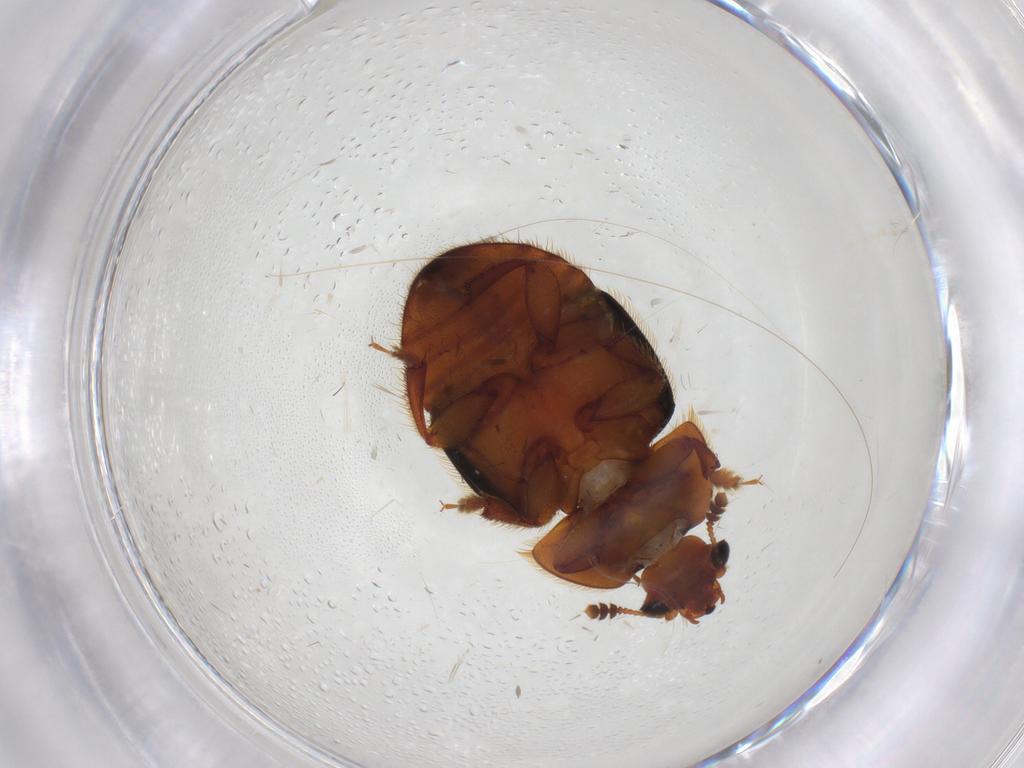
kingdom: Animalia
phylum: Arthropoda
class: Insecta
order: Coleoptera
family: Nitidulidae
